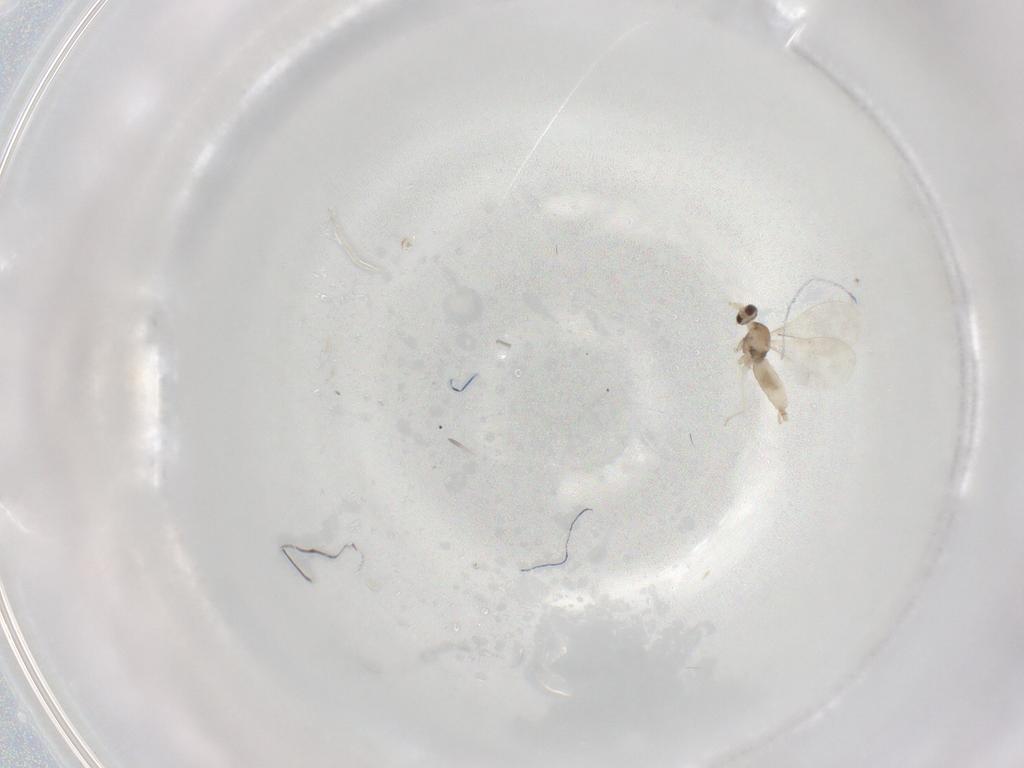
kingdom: Animalia
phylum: Arthropoda
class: Insecta
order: Diptera
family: Cecidomyiidae
